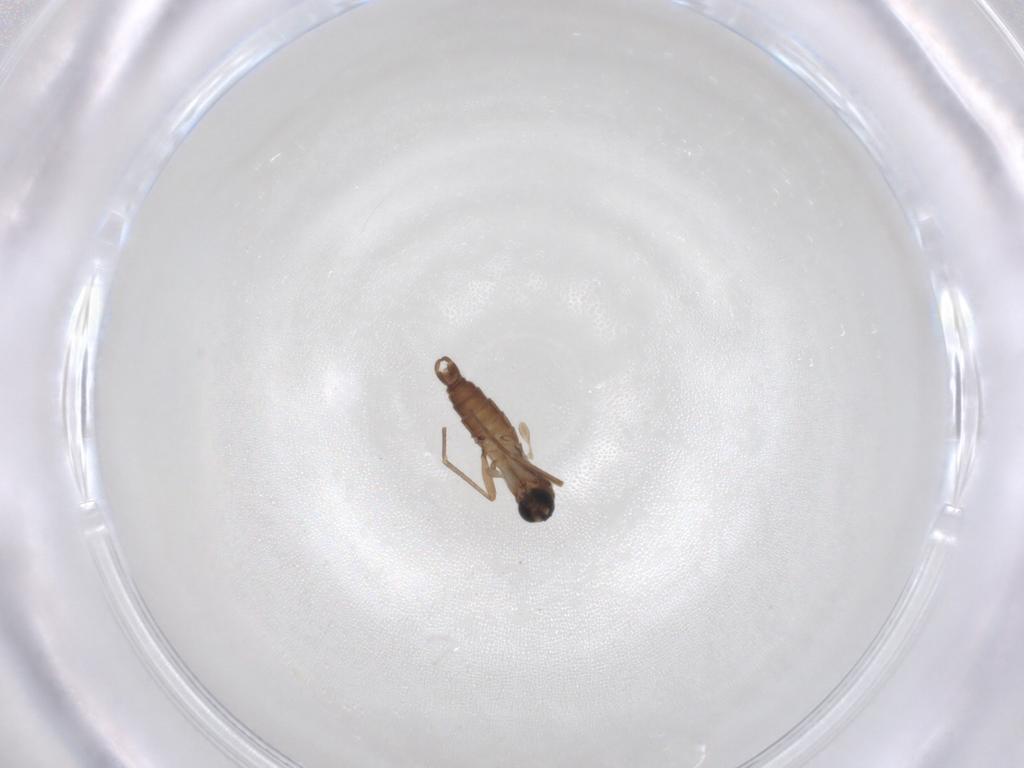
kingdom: Animalia
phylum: Arthropoda
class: Insecta
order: Diptera
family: Sciaridae
